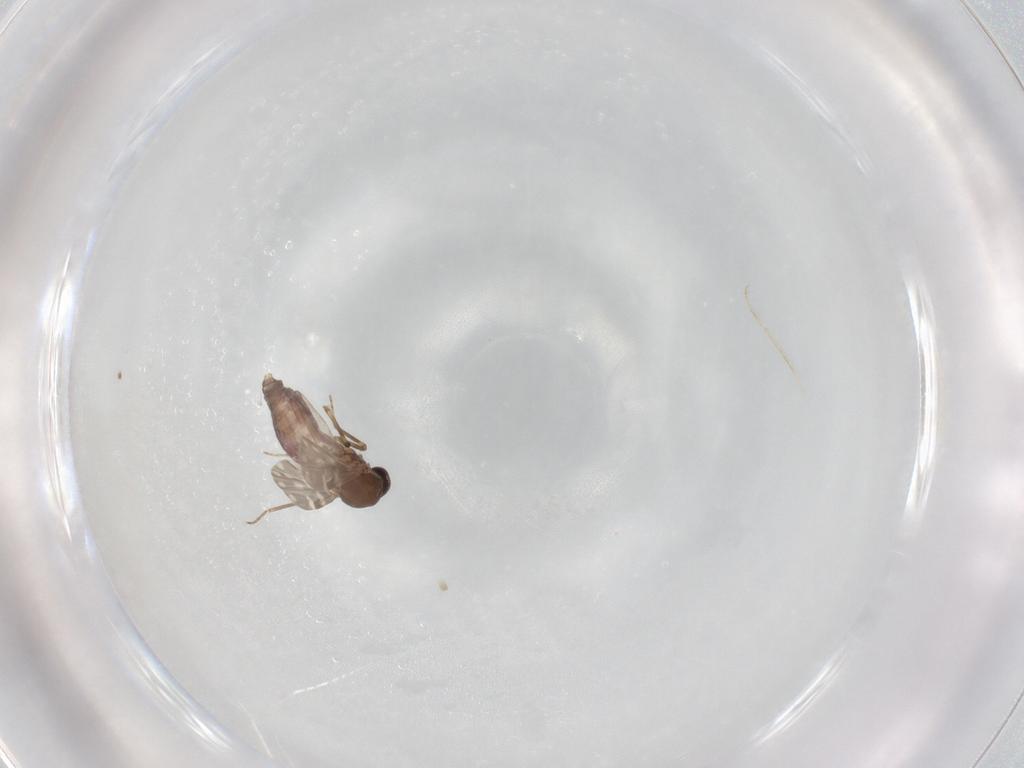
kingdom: Animalia
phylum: Arthropoda
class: Insecta
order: Diptera
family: Ceratopogonidae
